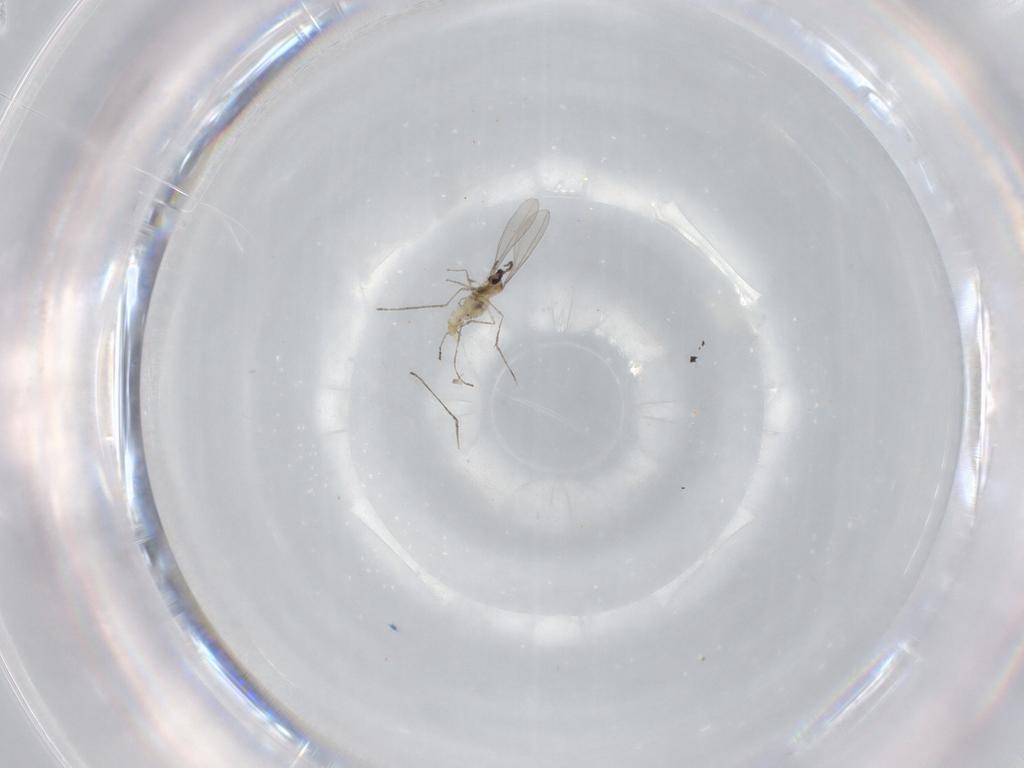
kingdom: Animalia
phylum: Arthropoda
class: Insecta
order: Diptera
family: Cecidomyiidae
